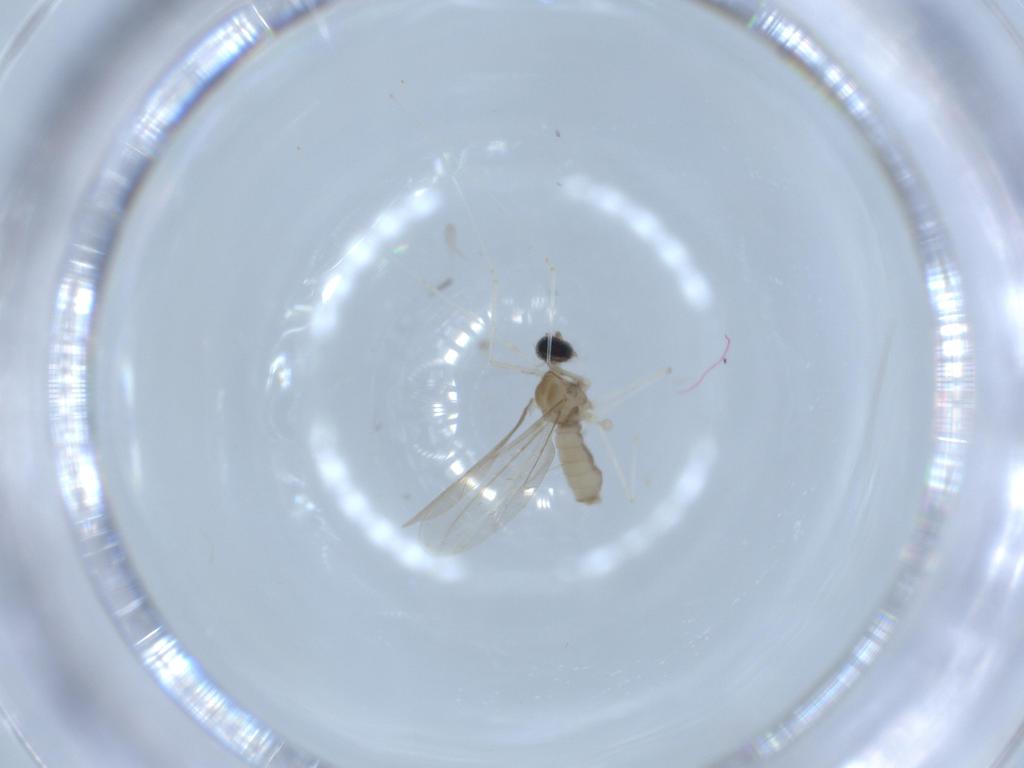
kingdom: Animalia
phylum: Arthropoda
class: Insecta
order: Diptera
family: Cecidomyiidae
